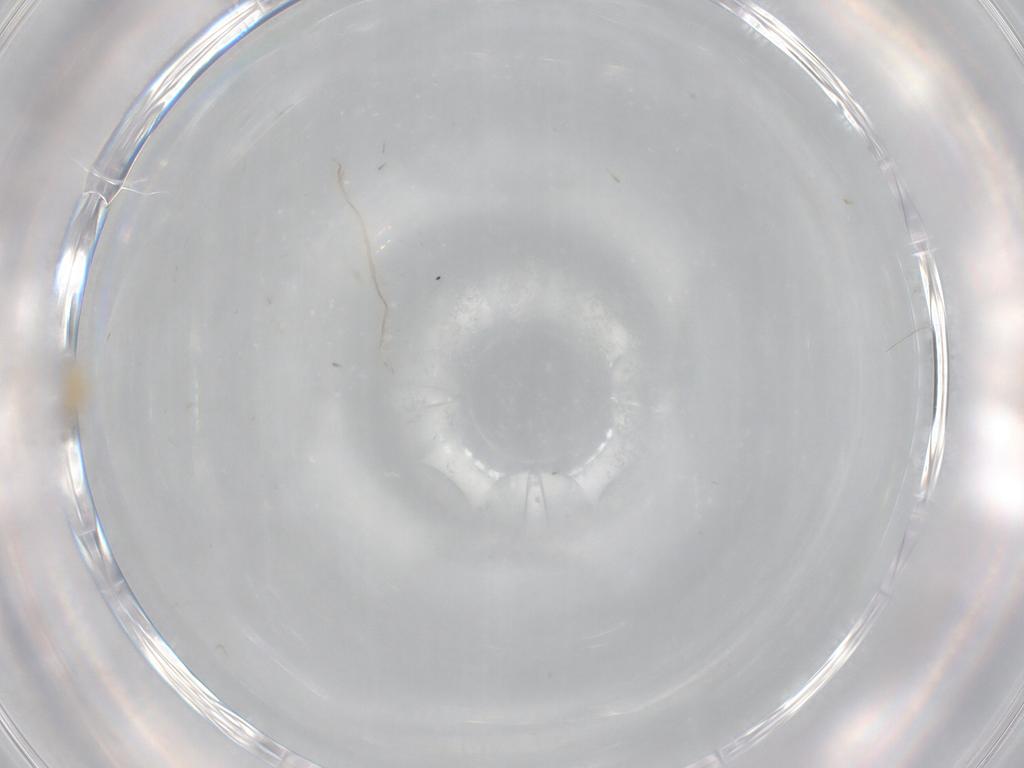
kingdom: Animalia
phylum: Arthropoda
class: Insecta
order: Diptera
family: Cecidomyiidae
